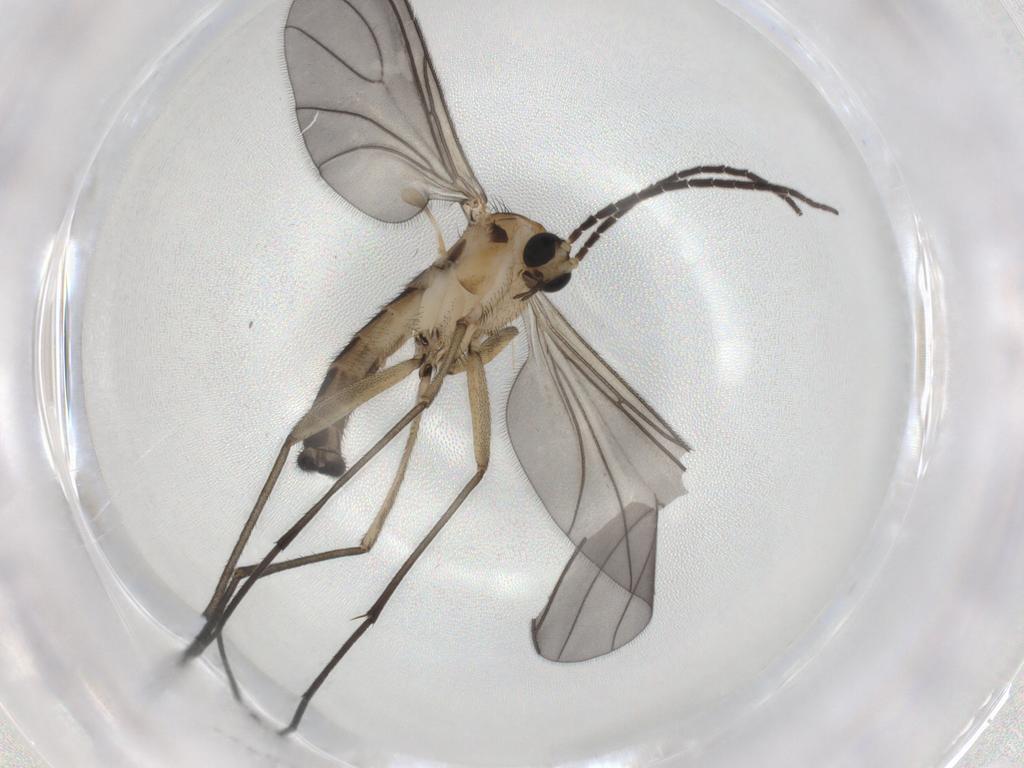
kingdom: Animalia
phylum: Arthropoda
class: Insecta
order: Diptera
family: Sciaridae
